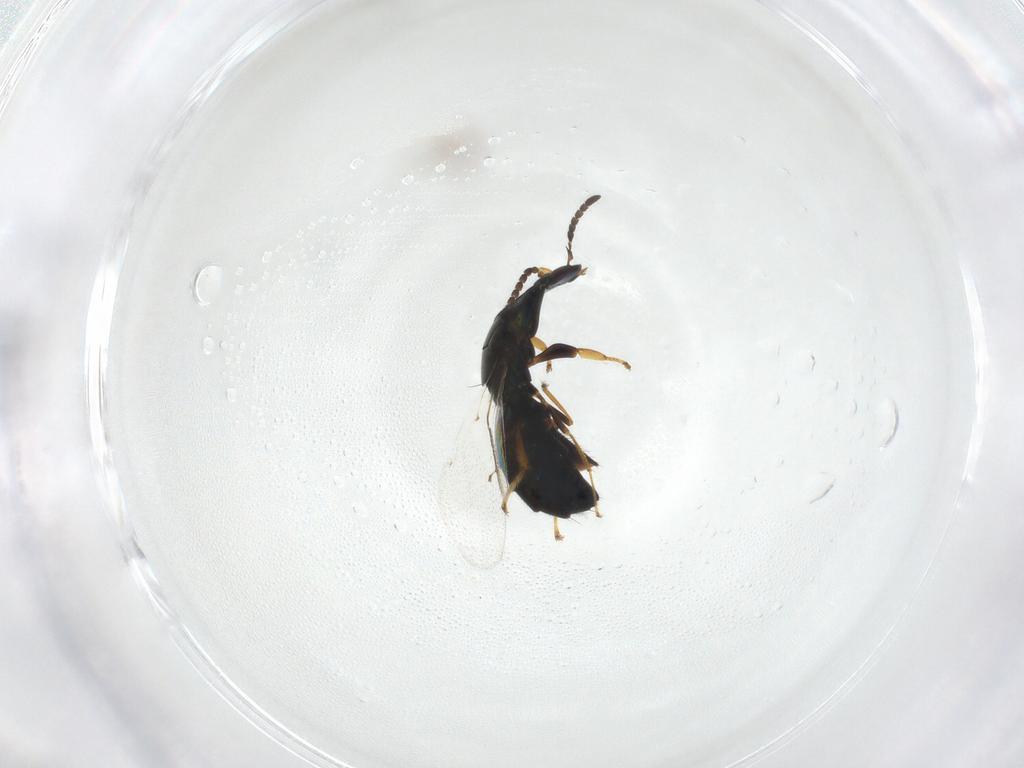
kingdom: Animalia
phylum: Arthropoda
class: Insecta
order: Hymenoptera
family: Pteromalidae
